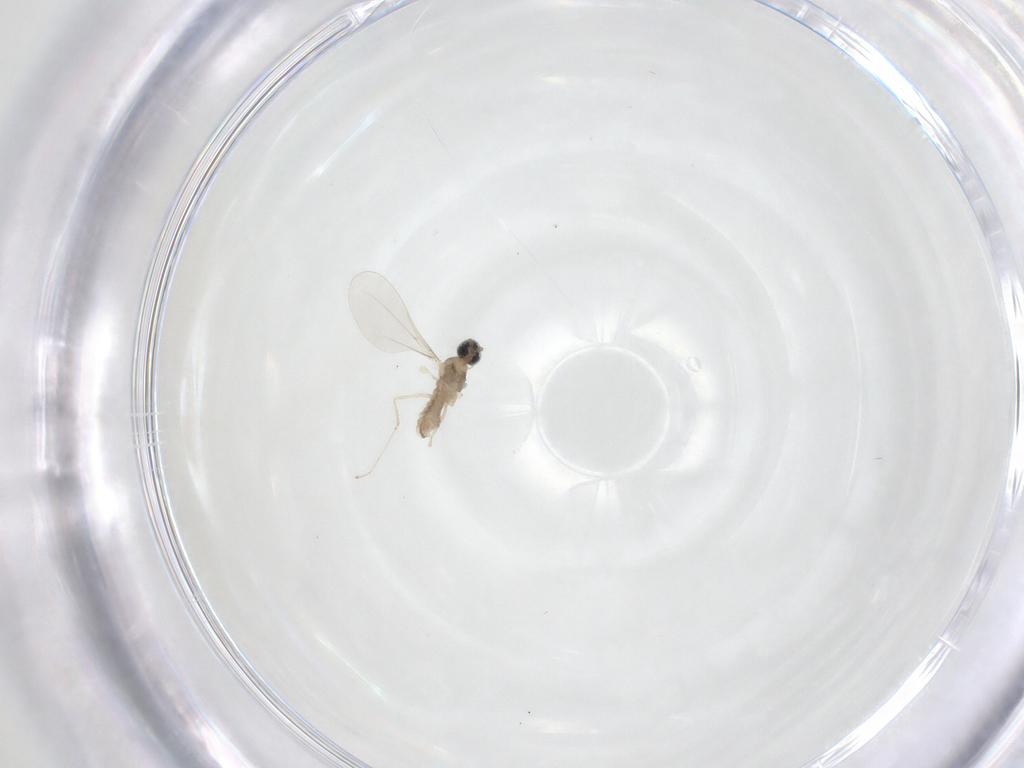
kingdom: Animalia
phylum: Arthropoda
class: Insecta
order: Diptera
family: Cecidomyiidae
